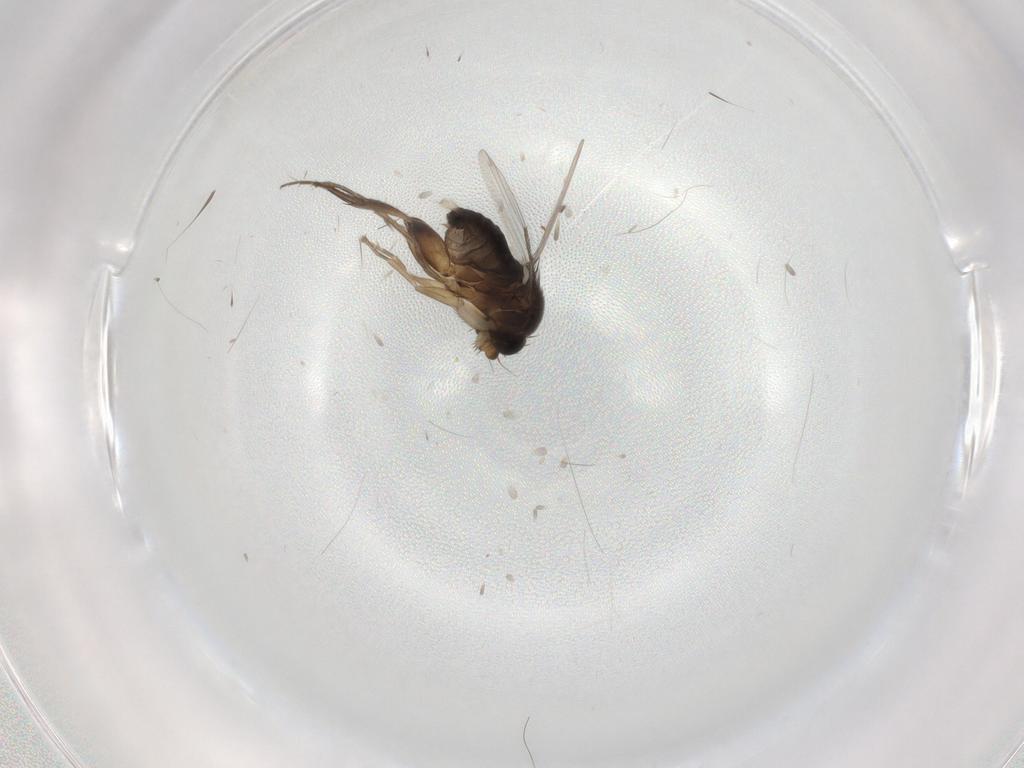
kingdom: Animalia
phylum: Arthropoda
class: Insecta
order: Diptera
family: Phoridae
